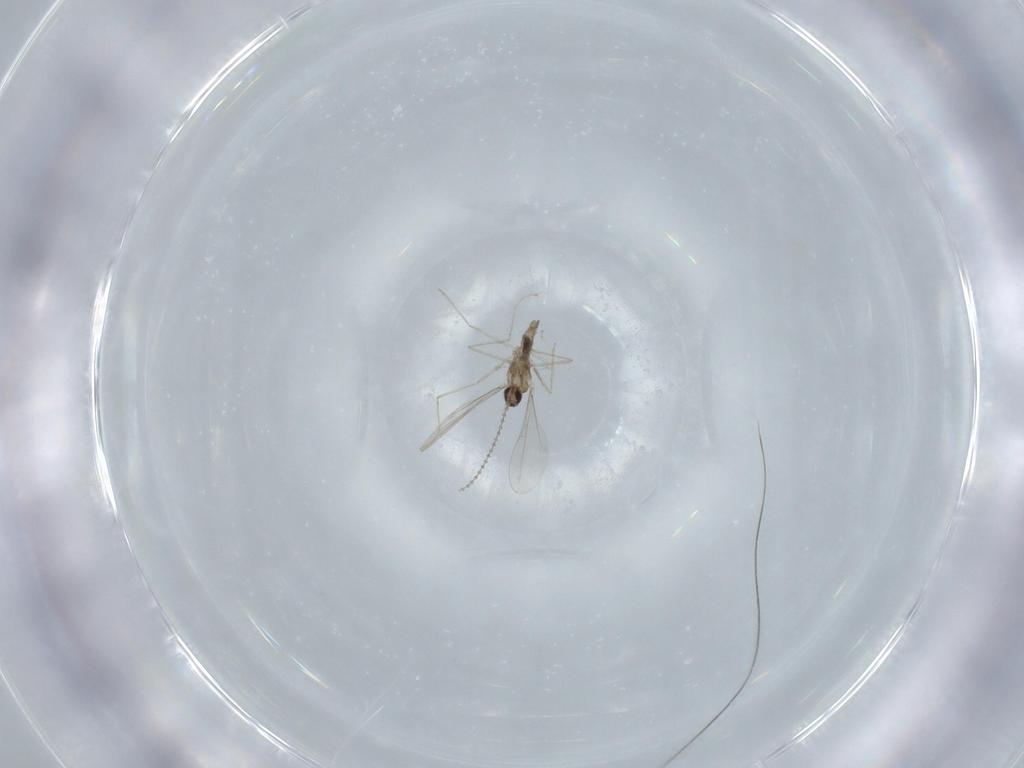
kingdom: Animalia
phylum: Arthropoda
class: Insecta
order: Diptera
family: Cecidomyiidae
